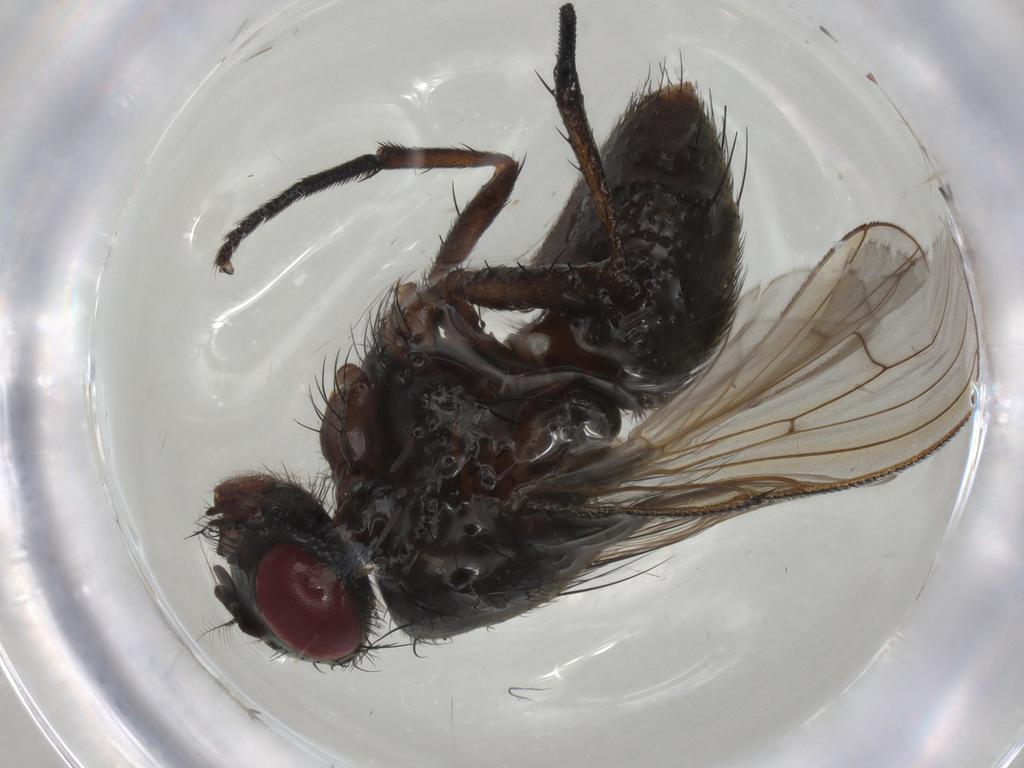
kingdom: Animalia
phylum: Arthropoda
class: Insecta
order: Diptera
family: Muscidae
